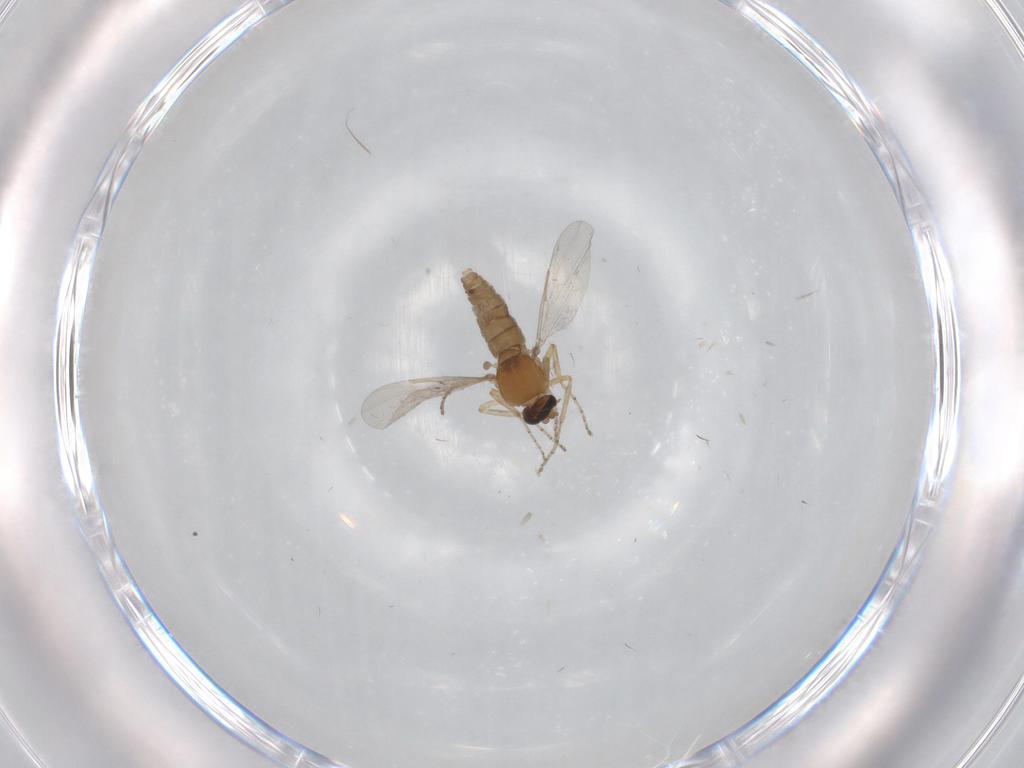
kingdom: Animalia
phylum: Arthropoda
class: Insecta
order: Diptera
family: Ceratopogonidae
